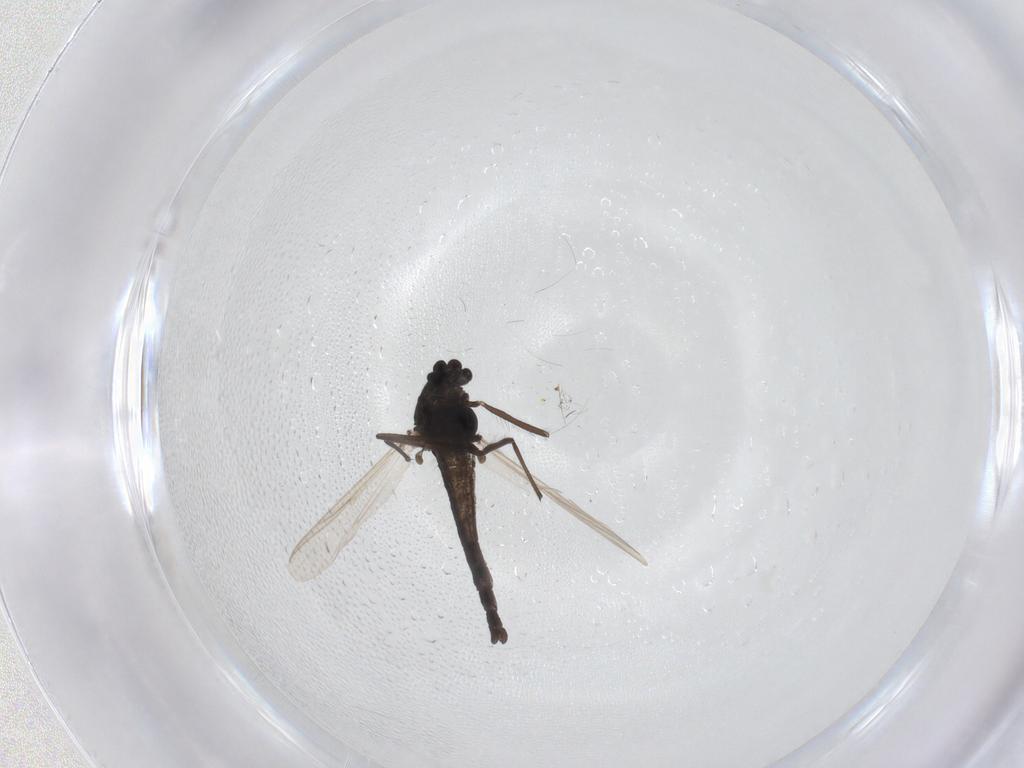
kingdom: Animalia
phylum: Arthropoda
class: Insecta
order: Diptera
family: Chironomidae
